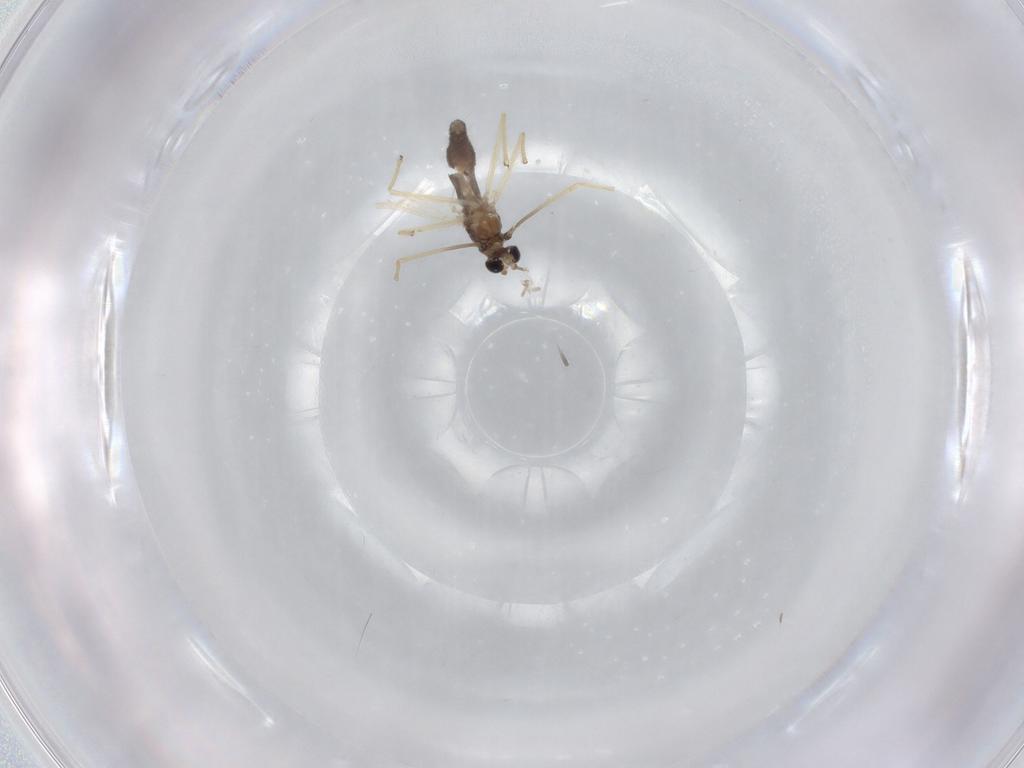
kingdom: Animalia
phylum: Arthropoda
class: Insecta
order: Diptera
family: Chironomidae
